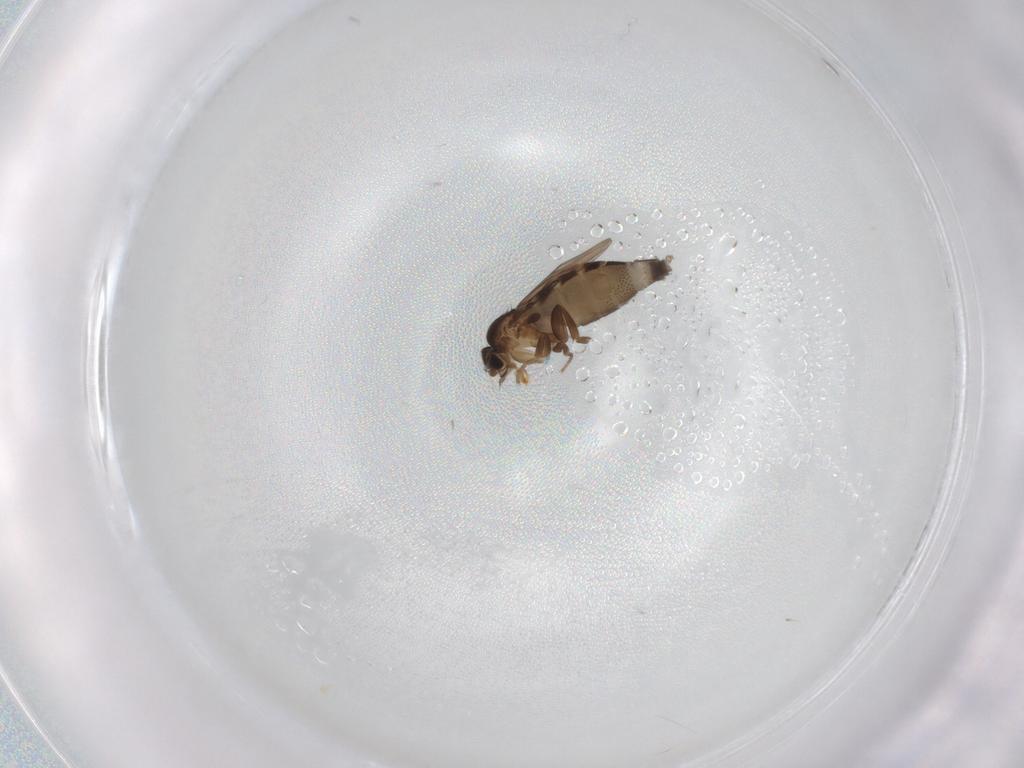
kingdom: Animalia
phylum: Arthropoda
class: Insecta
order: Diptera
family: Phoridae
